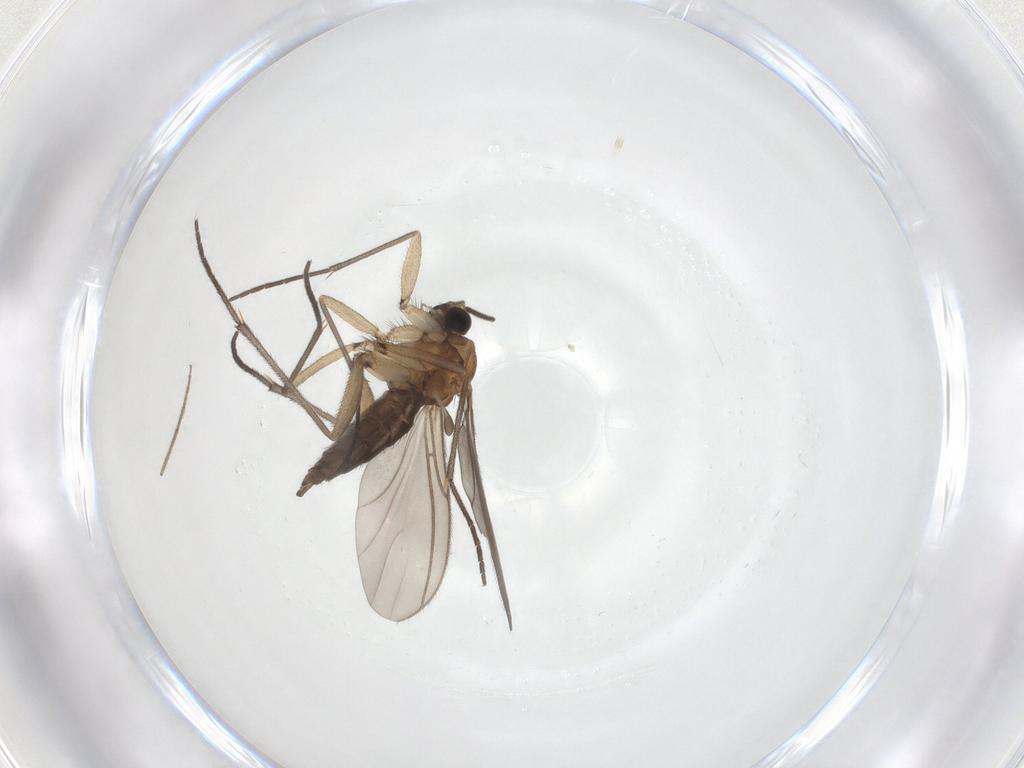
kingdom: Animalia
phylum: Arthropoda
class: Insecta
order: Diptera
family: Sciaridae
